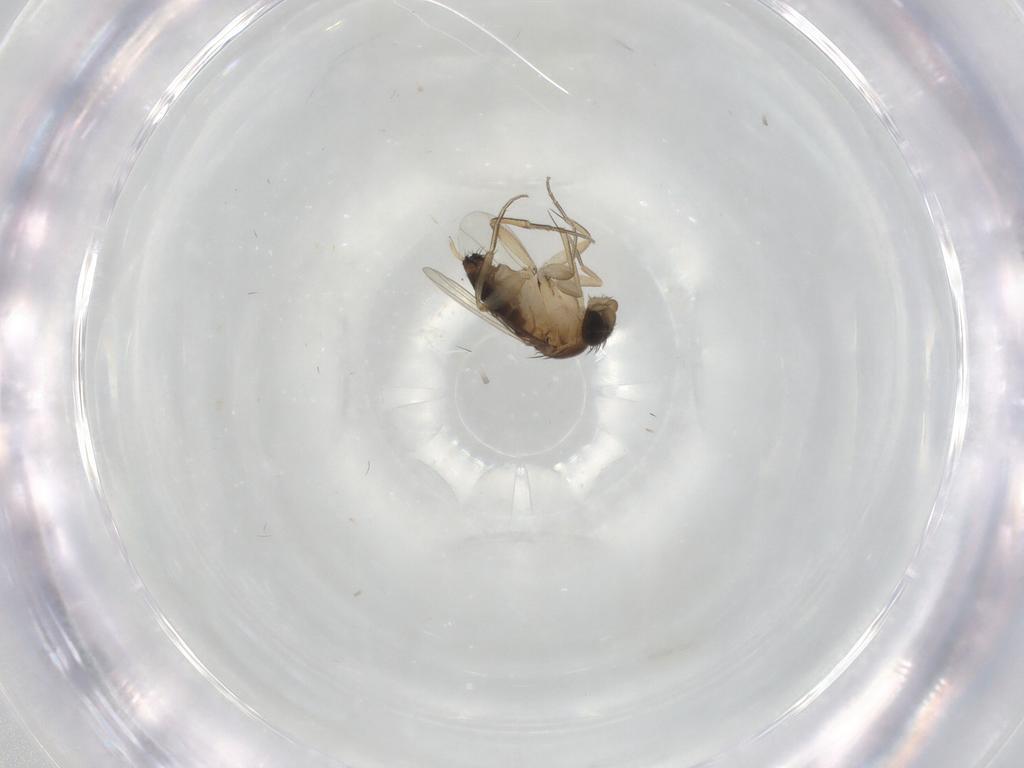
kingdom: Animalia
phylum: Arthropoda
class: Insecta
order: Diptera
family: Phoridae
